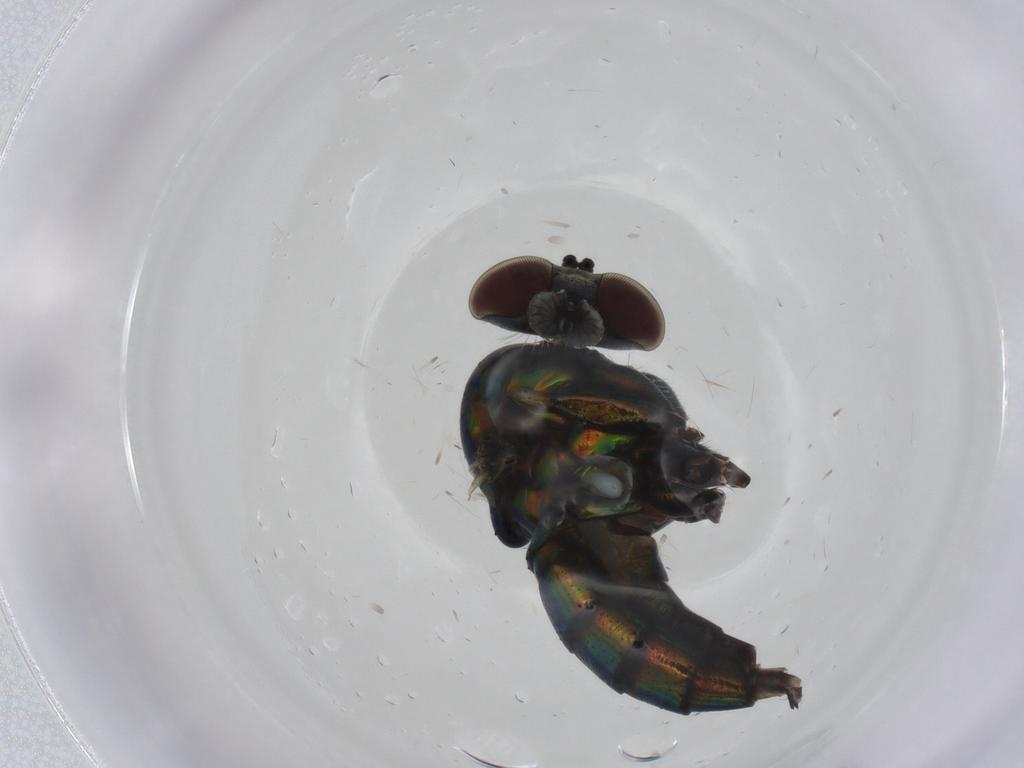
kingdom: Animalia
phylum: Arthropoda
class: Insecta
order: Diptera
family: Dolichopodidae
